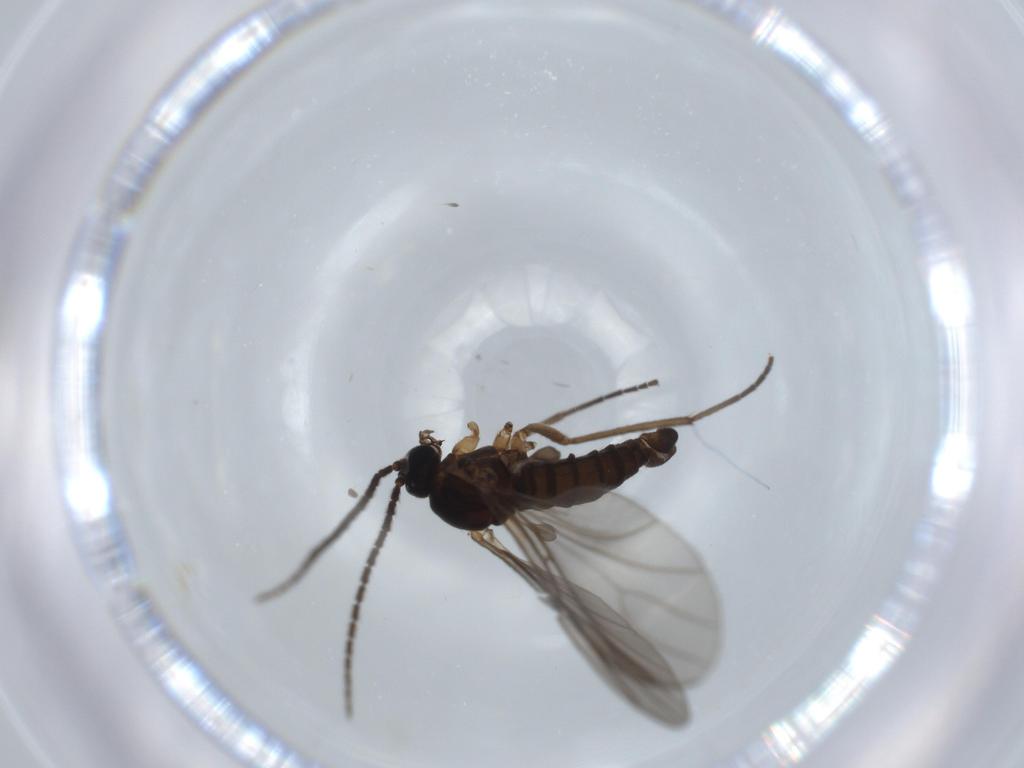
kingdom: Animalia
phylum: Arthropoda
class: Insecta
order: Diptera
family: Sciaridae
